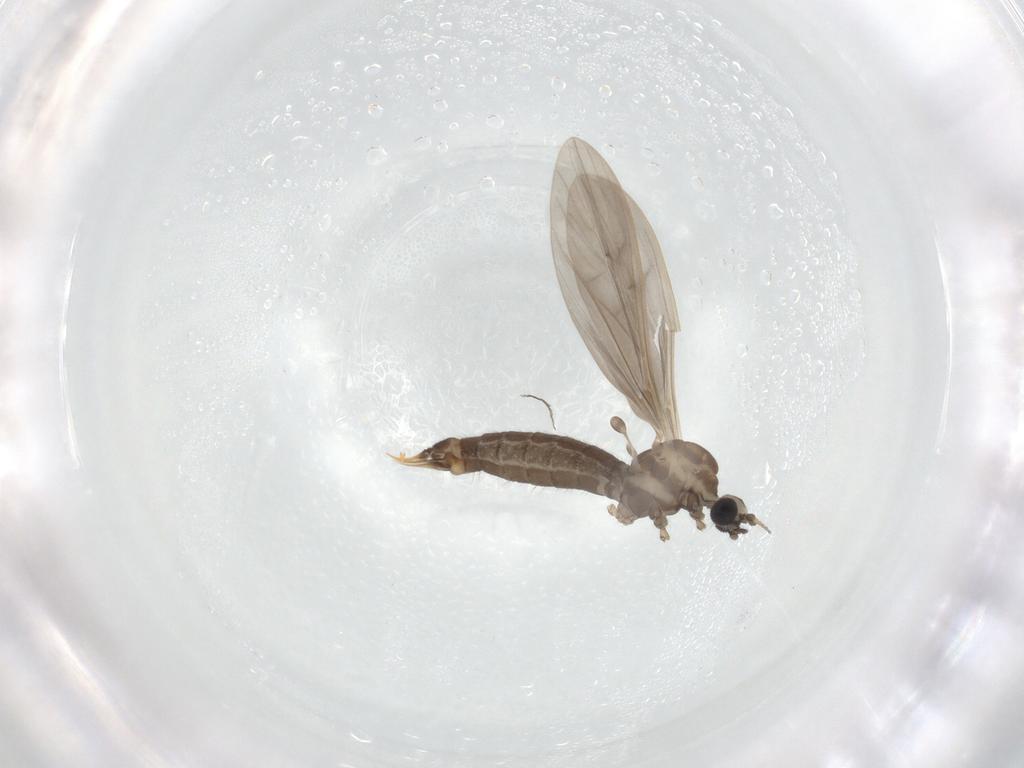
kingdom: Animalia
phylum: Arthropoda
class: Insecta
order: Diptera
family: Limoniidae
